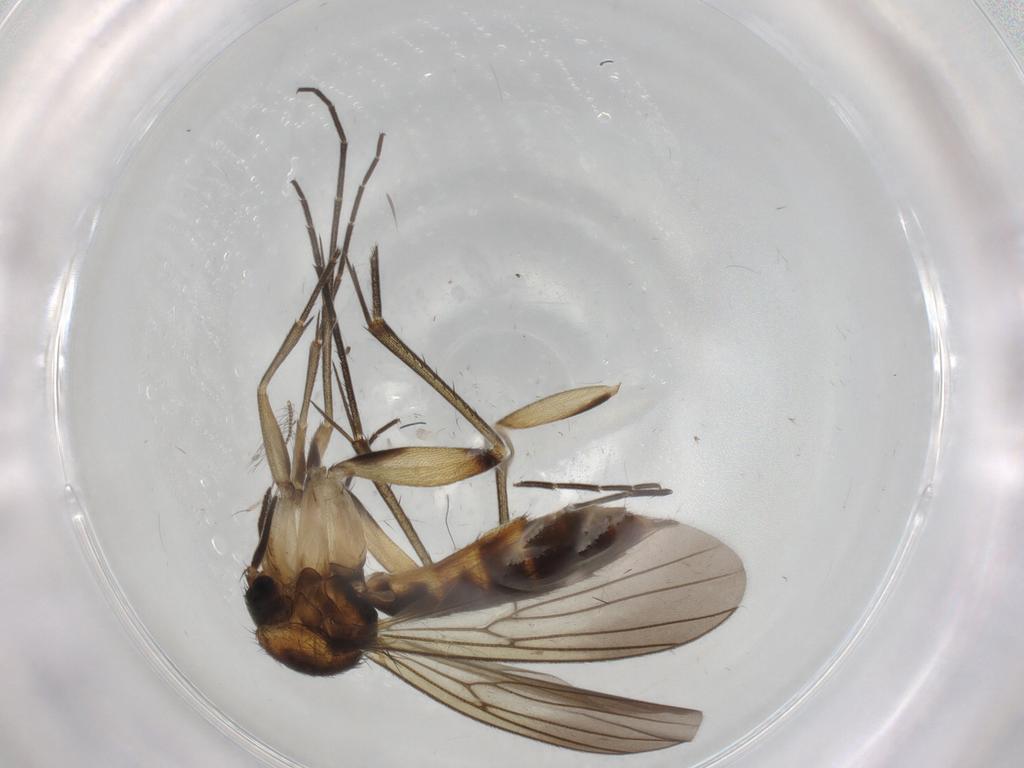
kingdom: Animalia
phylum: Arthropoda
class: Insecta
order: Diptera
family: Mycetophilidae
